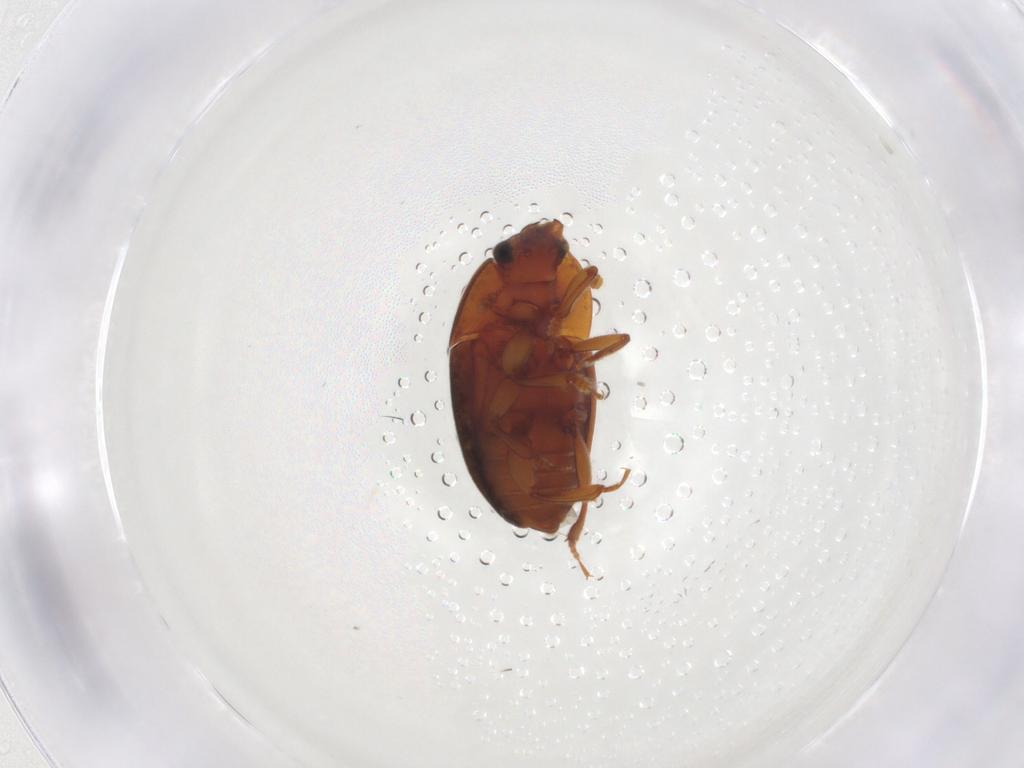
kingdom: Animalia
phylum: Arthropoda
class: Insecta
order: Coleoptera
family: Nitidulidae
